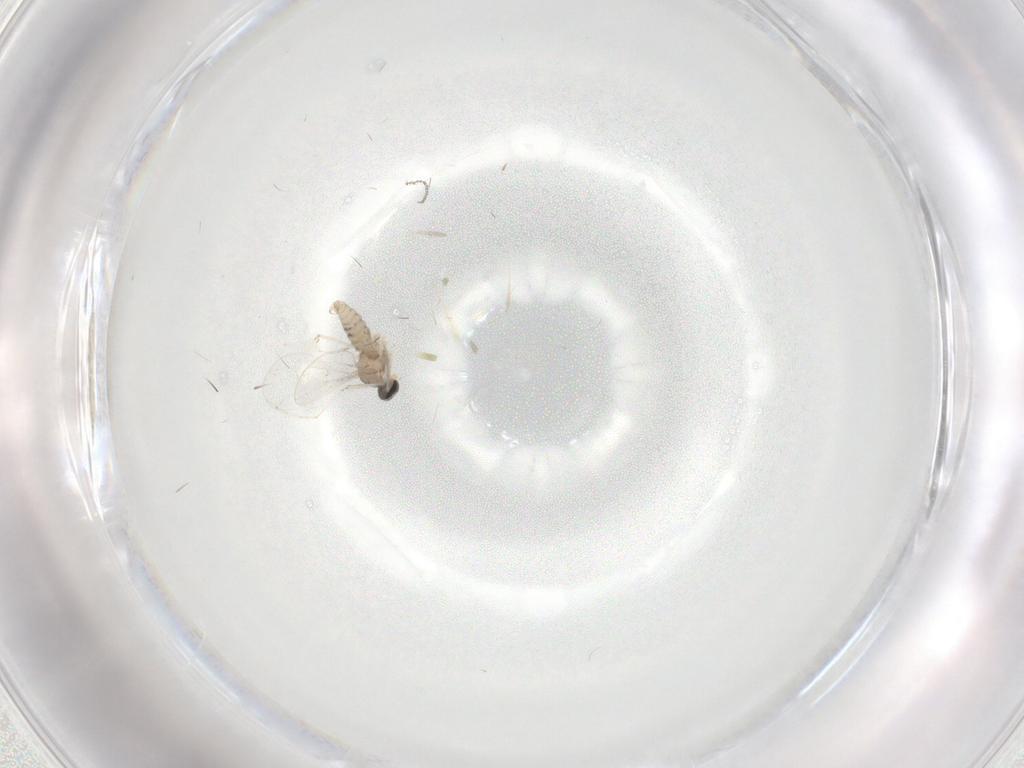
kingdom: Animalia
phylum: Arthropoda
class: Insecta
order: Diptera
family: Cecidomyiidae
